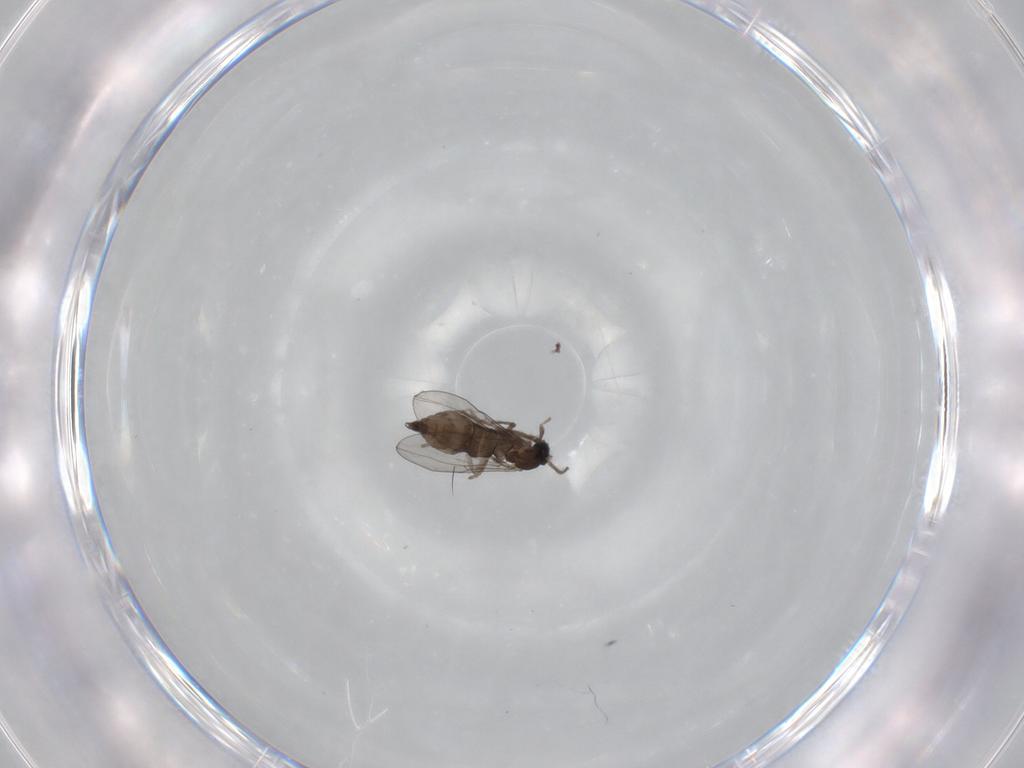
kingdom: Animalia
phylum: Arthropoda
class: Insecta
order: Diptera
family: Cecidomyiidae
